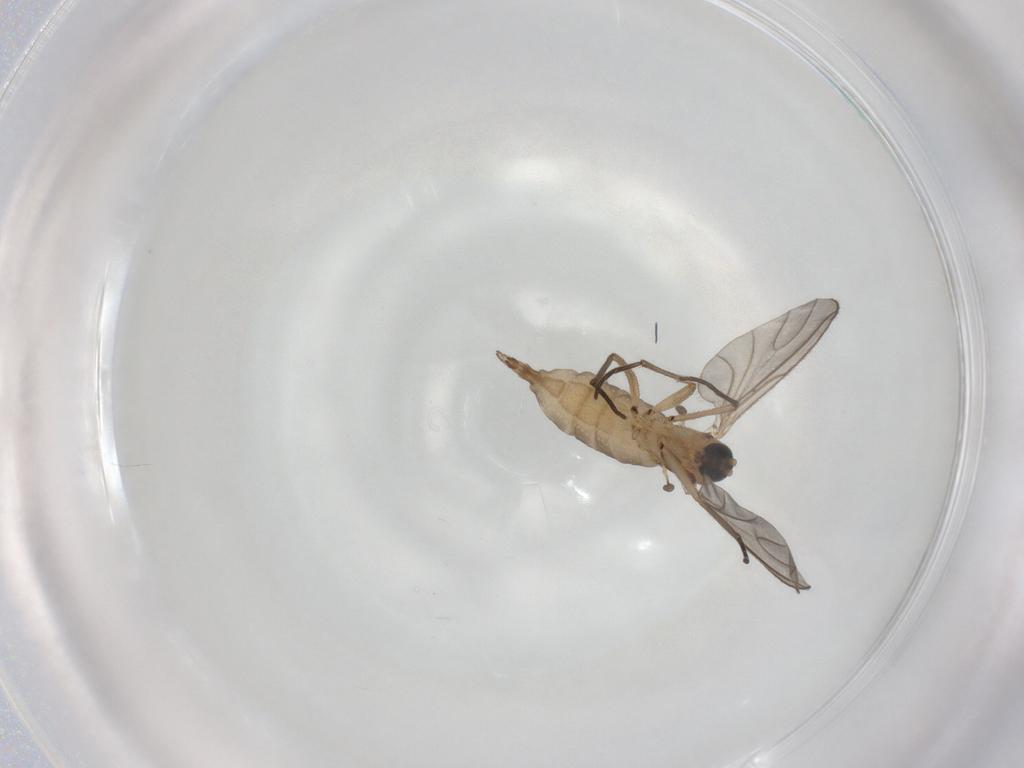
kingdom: Animalia
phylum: Arthropoda
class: Insecta
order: Diptera
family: Sciaridae
